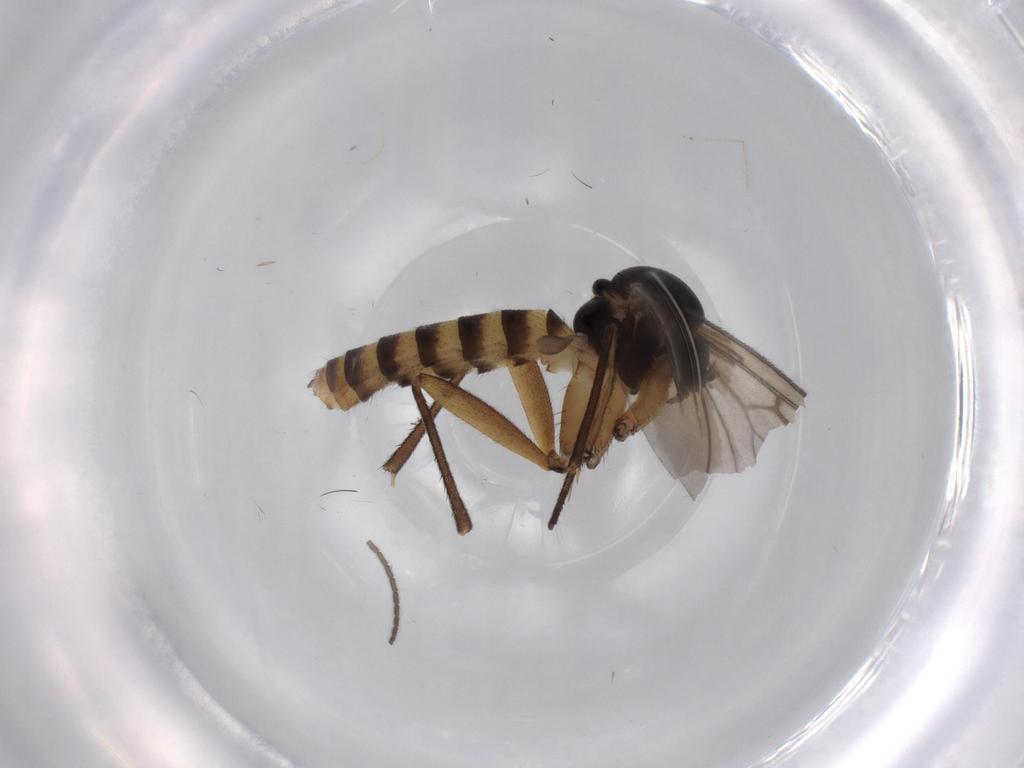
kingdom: Animalia
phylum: Arthropoda
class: Insecta
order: Diptera
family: Mycetophilidae
